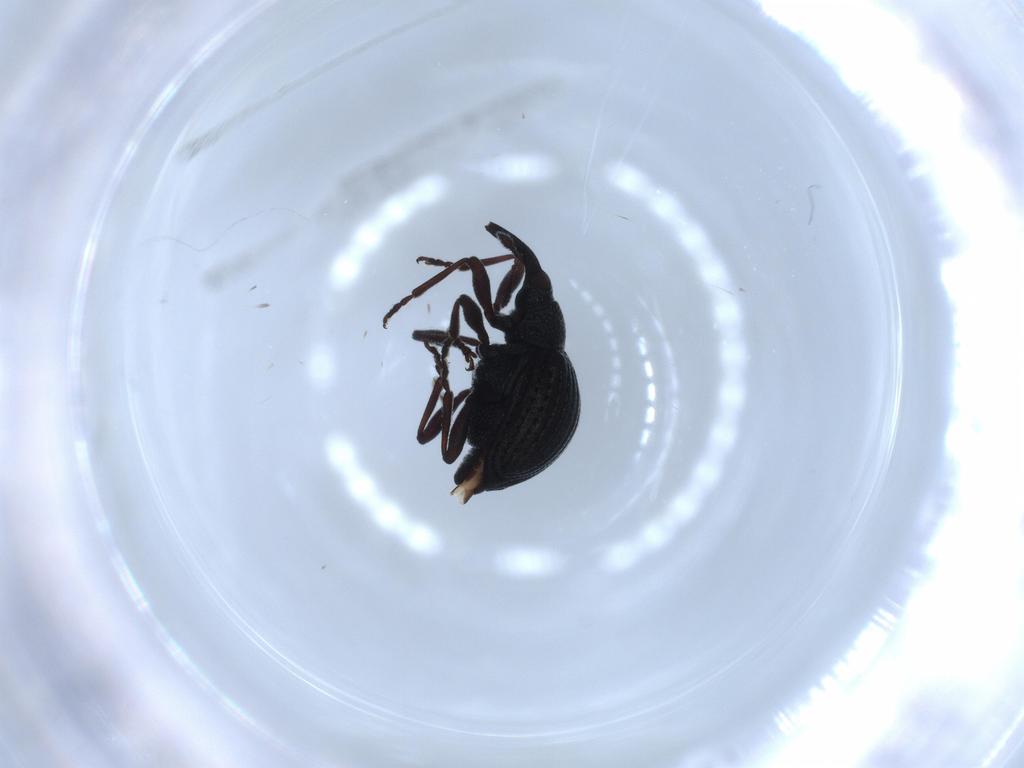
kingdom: Animalia
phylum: Arthropoda
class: Insecta
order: Coleoptera
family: Brentidae
